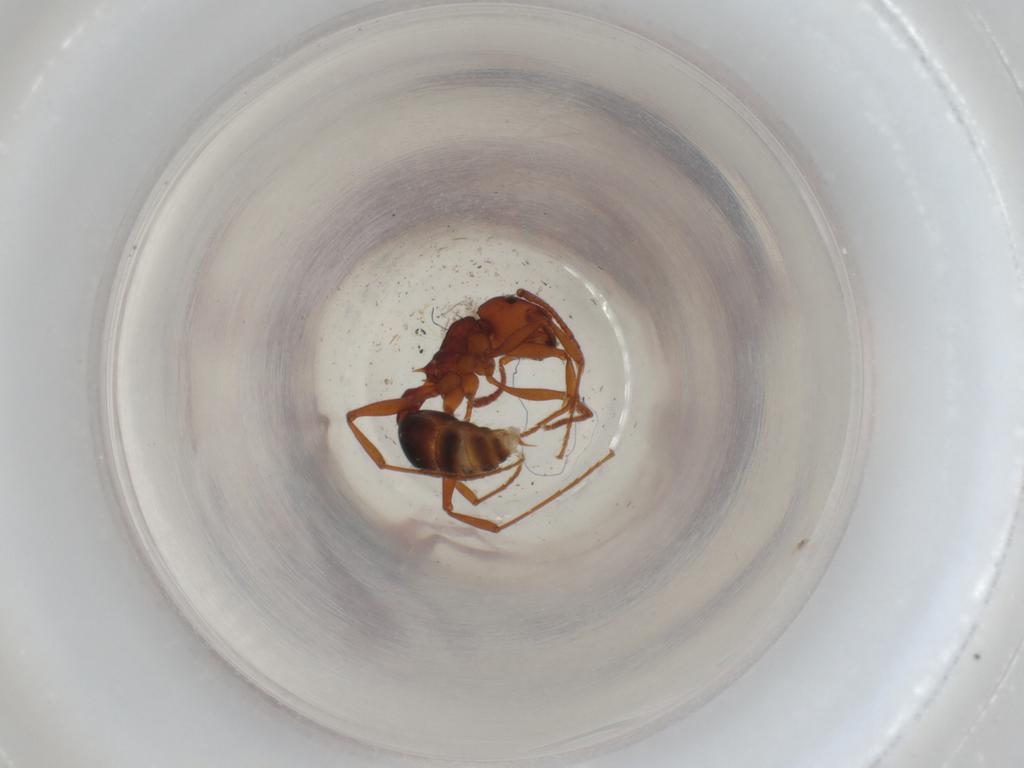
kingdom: Animalia
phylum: Arthropoda
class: Insecta
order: Hymenoptera
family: Formicidae
